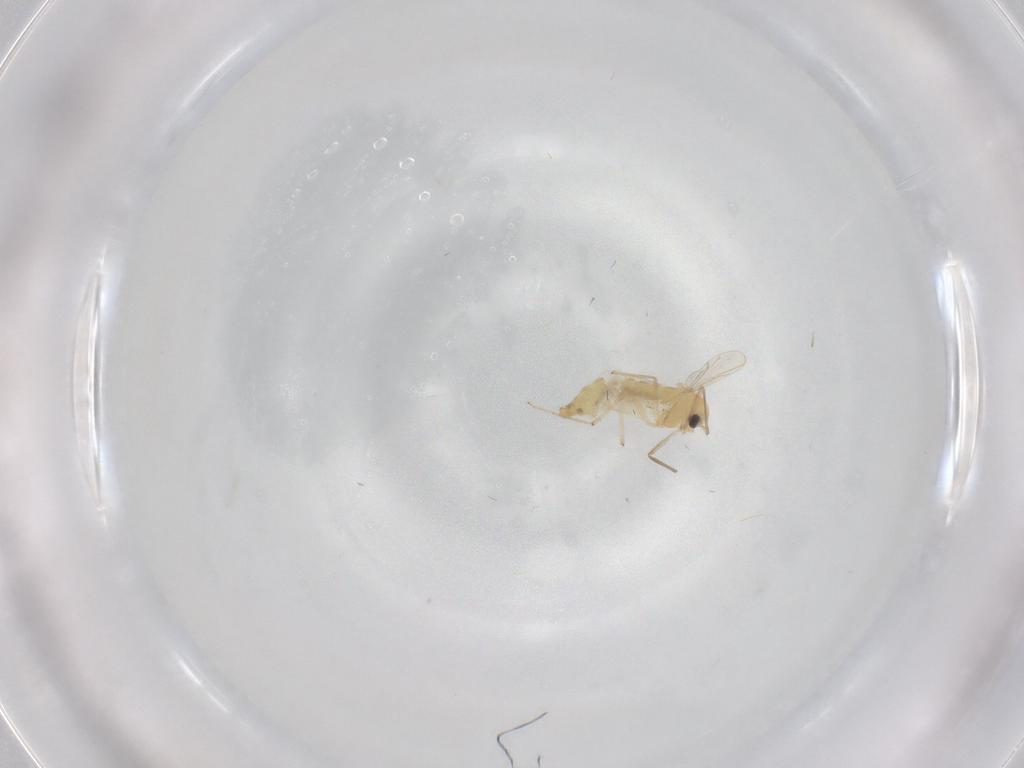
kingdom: Animalia
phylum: Arthropoda
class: Insecta
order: Diptera
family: Chironomidae
